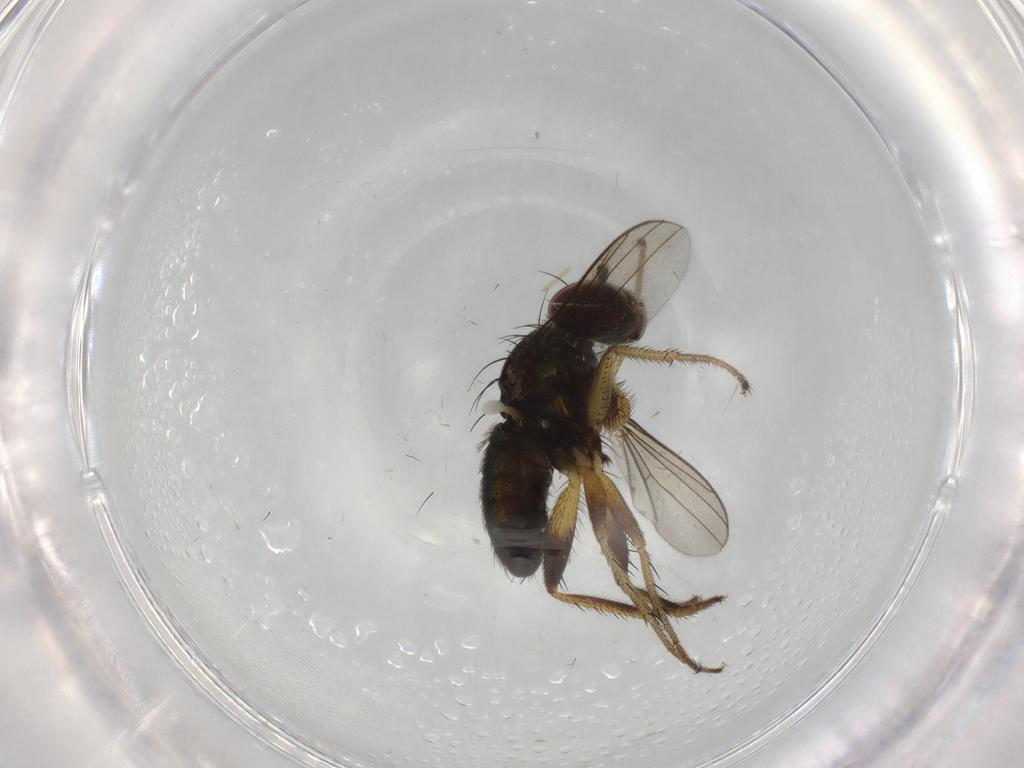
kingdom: Animalia
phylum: Arthropoda
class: Insecta
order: Diptera
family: Dolichopodidae
